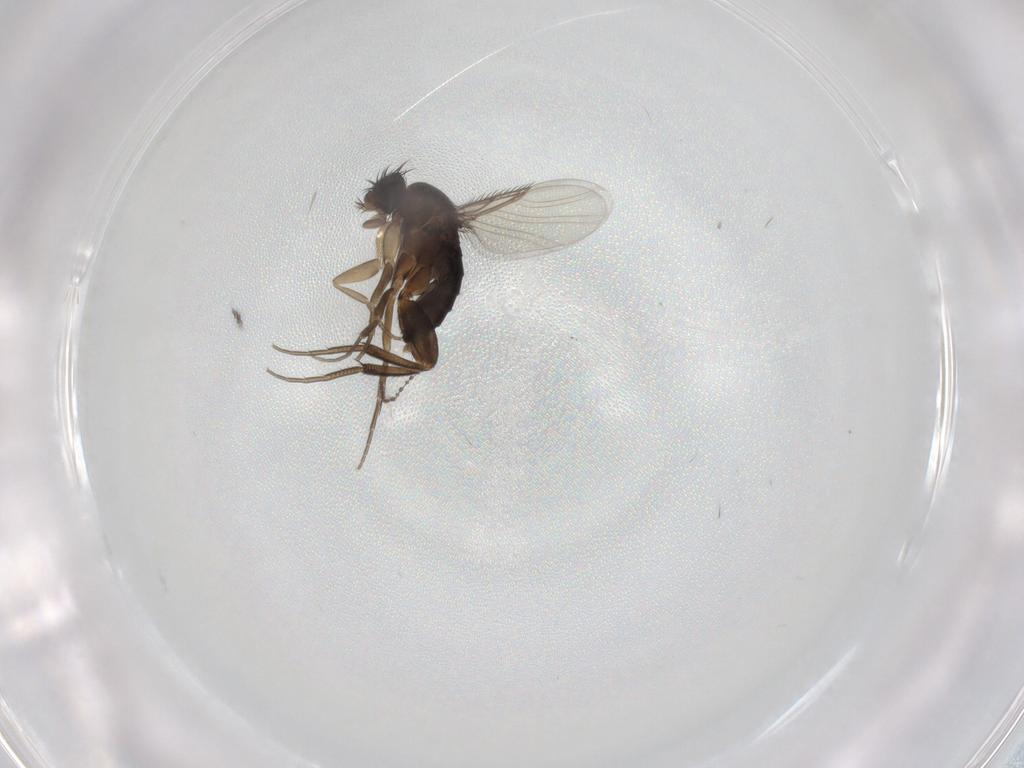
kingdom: Animalia
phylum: Arthropoda
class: Insecta
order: Diptera
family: Phoridae
